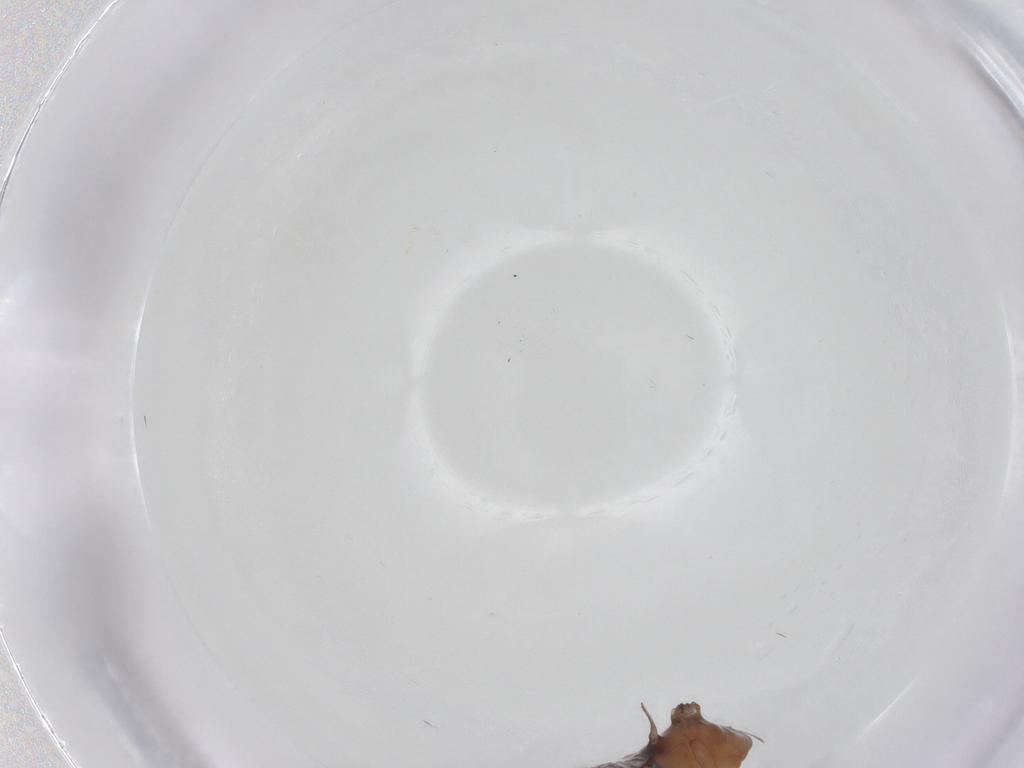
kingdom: Animalia
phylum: Arthropoda
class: Insecta
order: Diptera
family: Limoniidae
